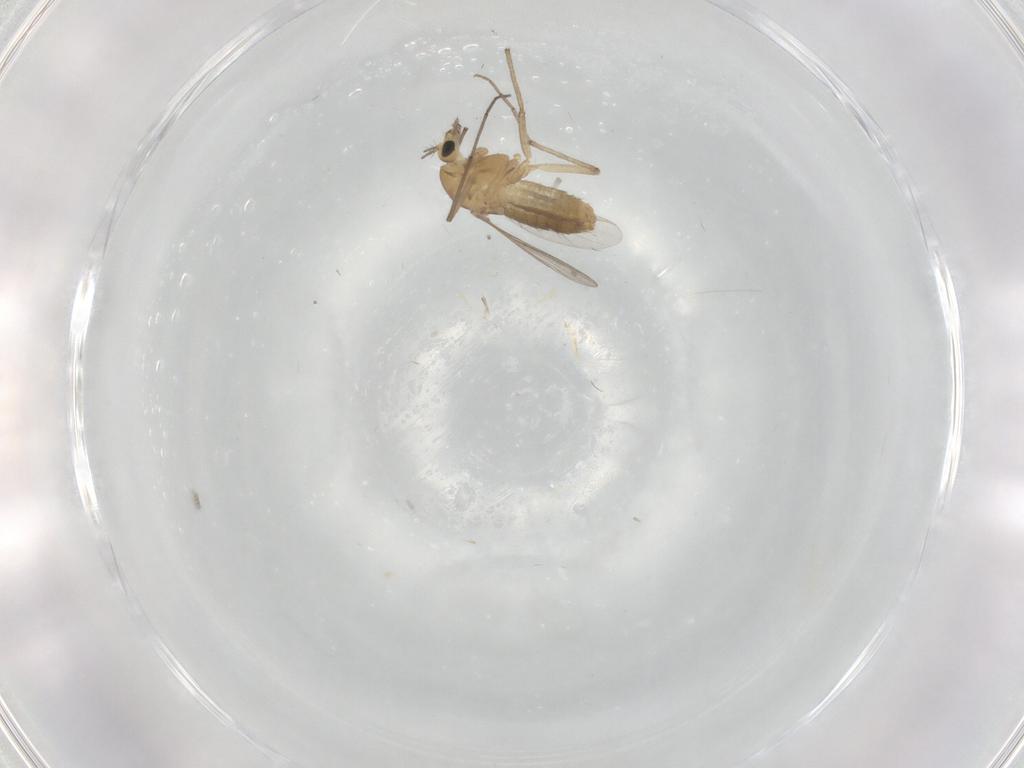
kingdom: Animalia
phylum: Arthropoda
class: Insecta
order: Diptera
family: Chironomidae
